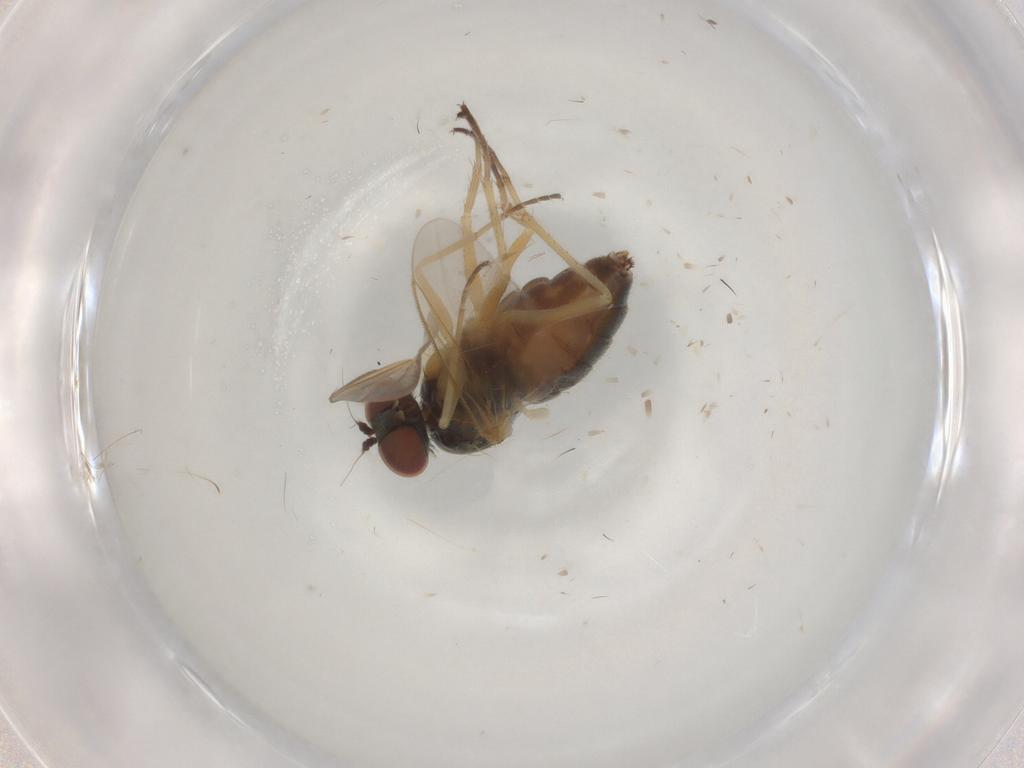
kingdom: Animalia
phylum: Arthropoda
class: Insecta
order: Diptera
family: Dolichopodidae
